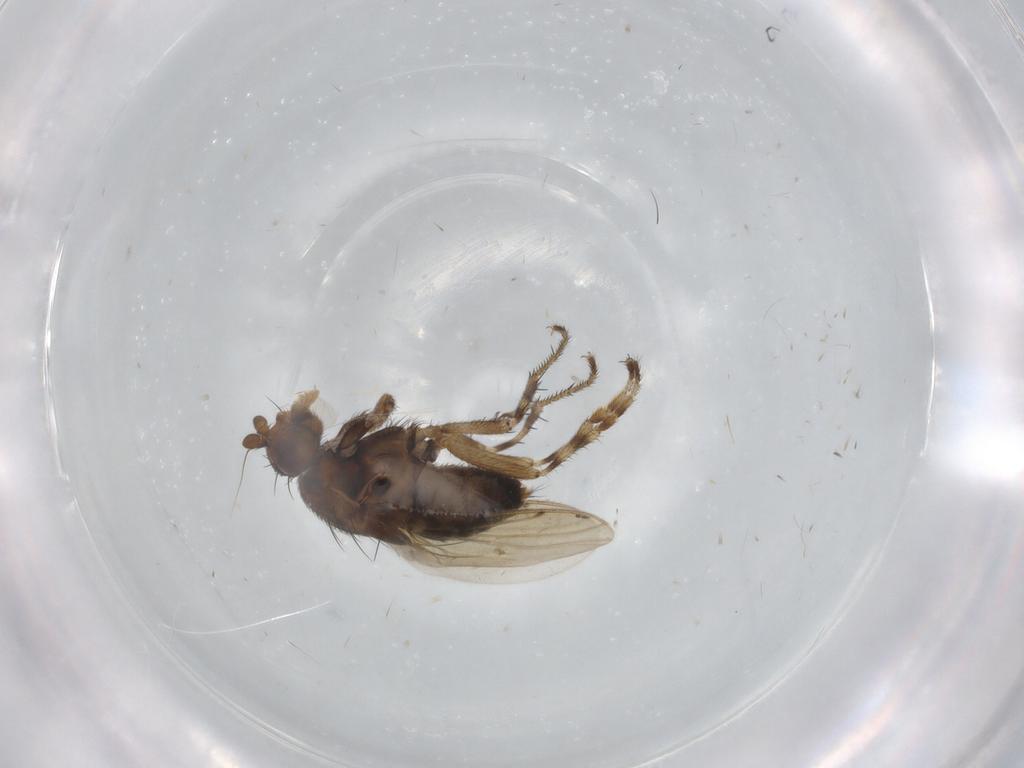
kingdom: Animalia
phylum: Arthropoda
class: Insecta
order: Diptera
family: Sphaeroceridae
